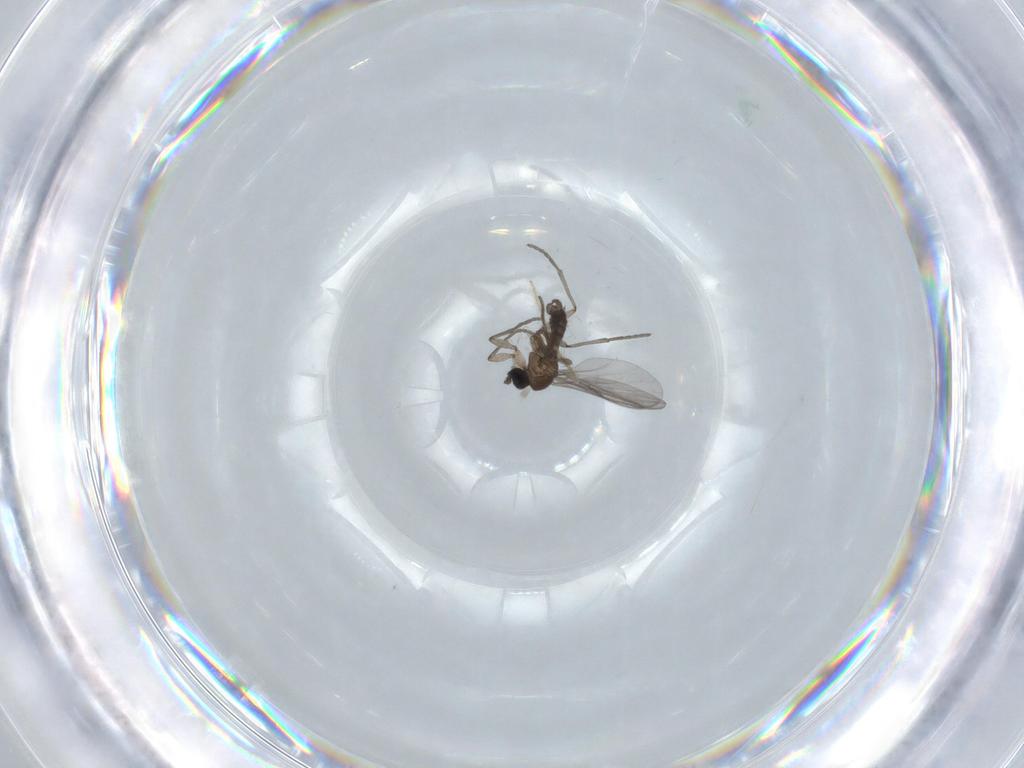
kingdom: Animalia
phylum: Arthropoda
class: Insecta
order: Diptera
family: Chironomidae
